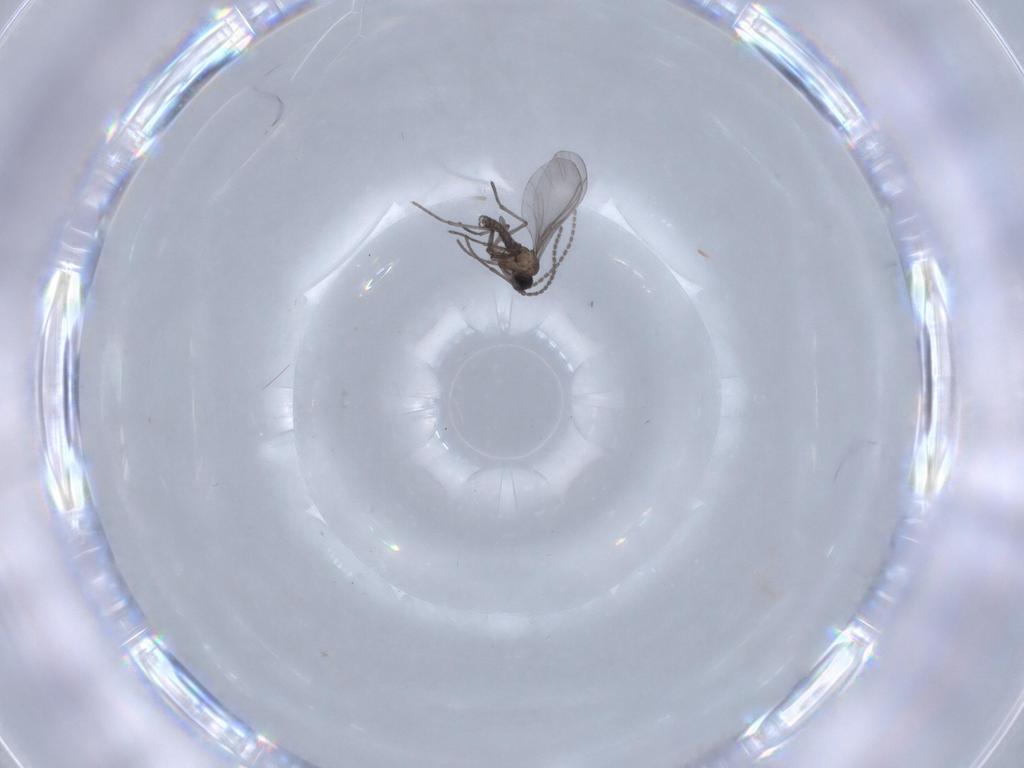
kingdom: Animalia
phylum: Arthropoda
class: Insecta
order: Diptera
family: Sciaridae
